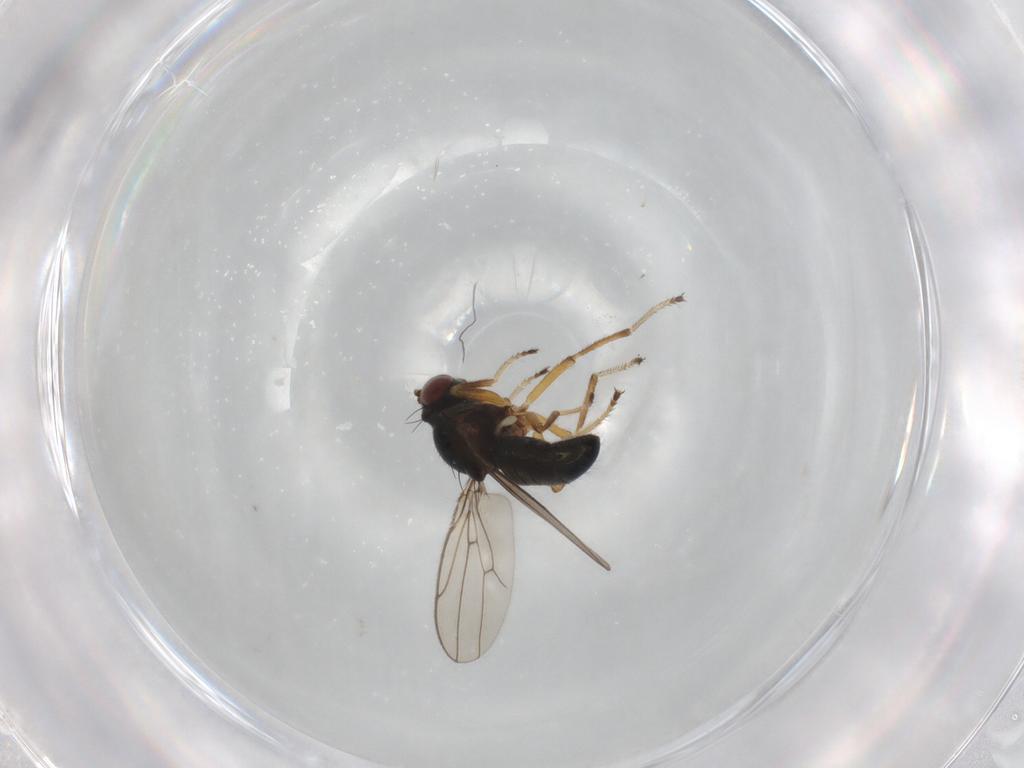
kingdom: Animalia
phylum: Arthropoda
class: Insecta
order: Diptera
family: Ephydridae
